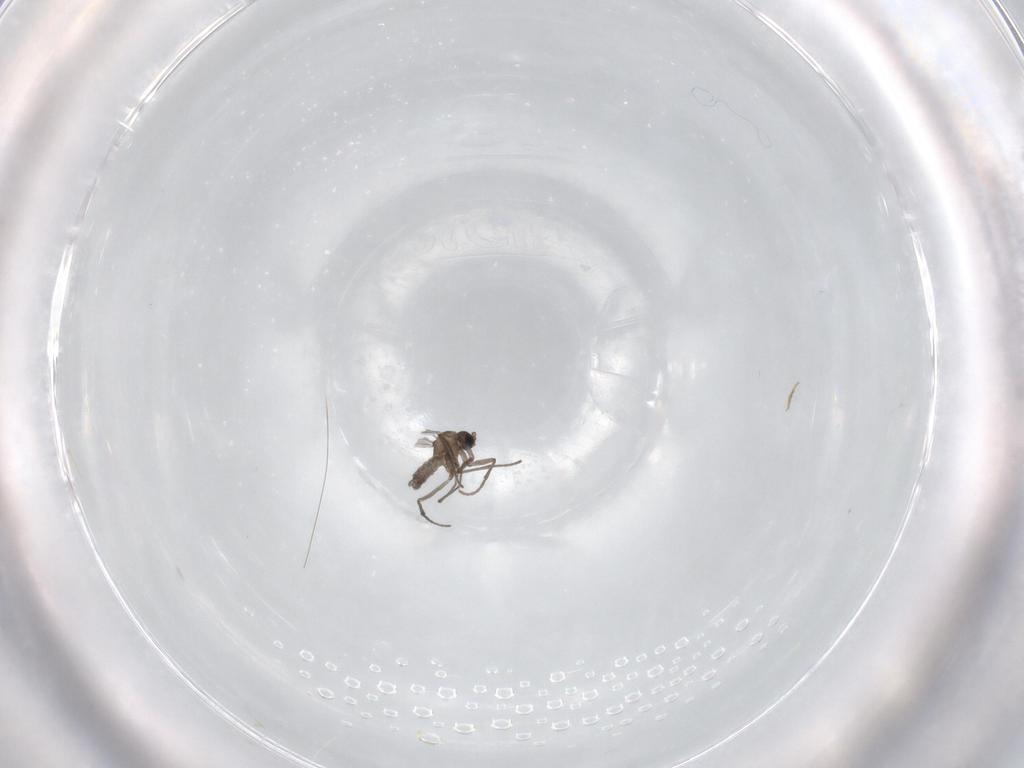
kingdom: Animalia
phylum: Arthropoda
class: Insecta
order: Diptera
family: Sciaridae
